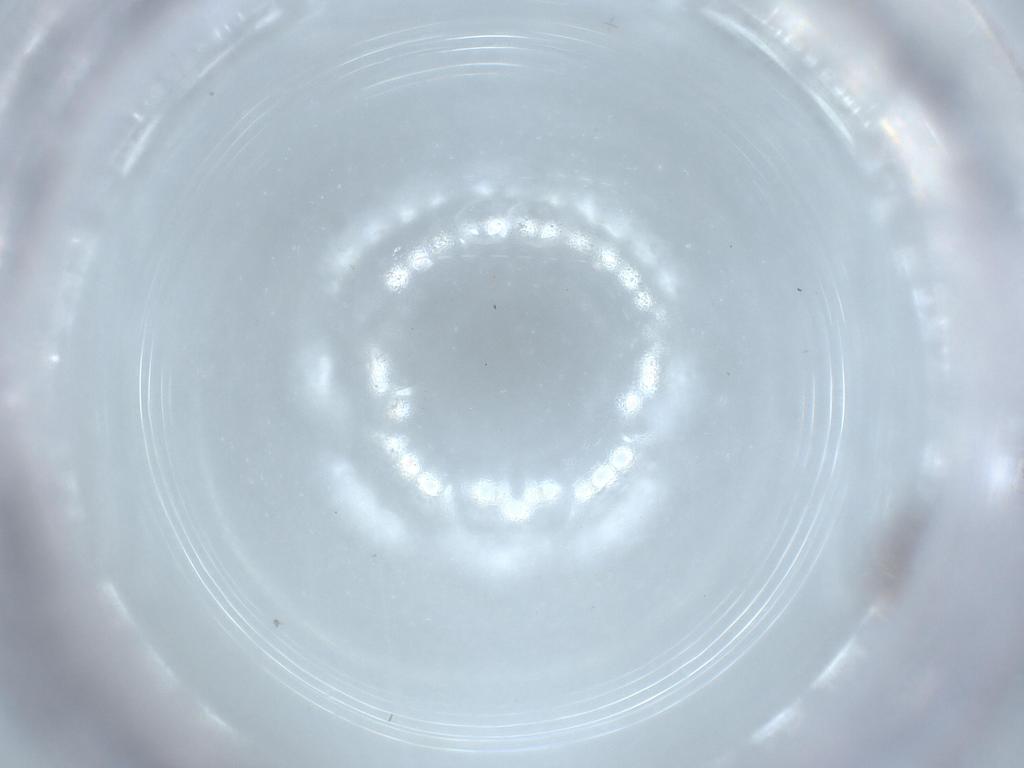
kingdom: Animalia
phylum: Arthropoda
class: Insecta
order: Thysanoptera
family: Phlaeothripidae
